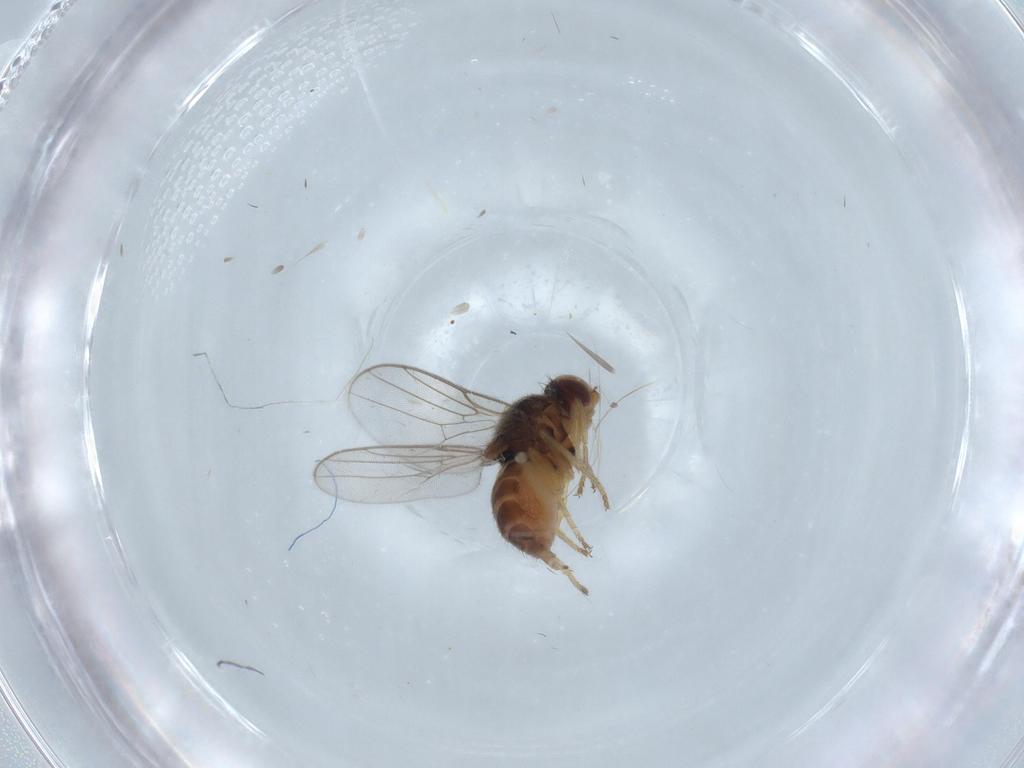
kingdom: Animalia
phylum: Arthropoda
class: Insecta
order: Diptera
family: Chloropidae
